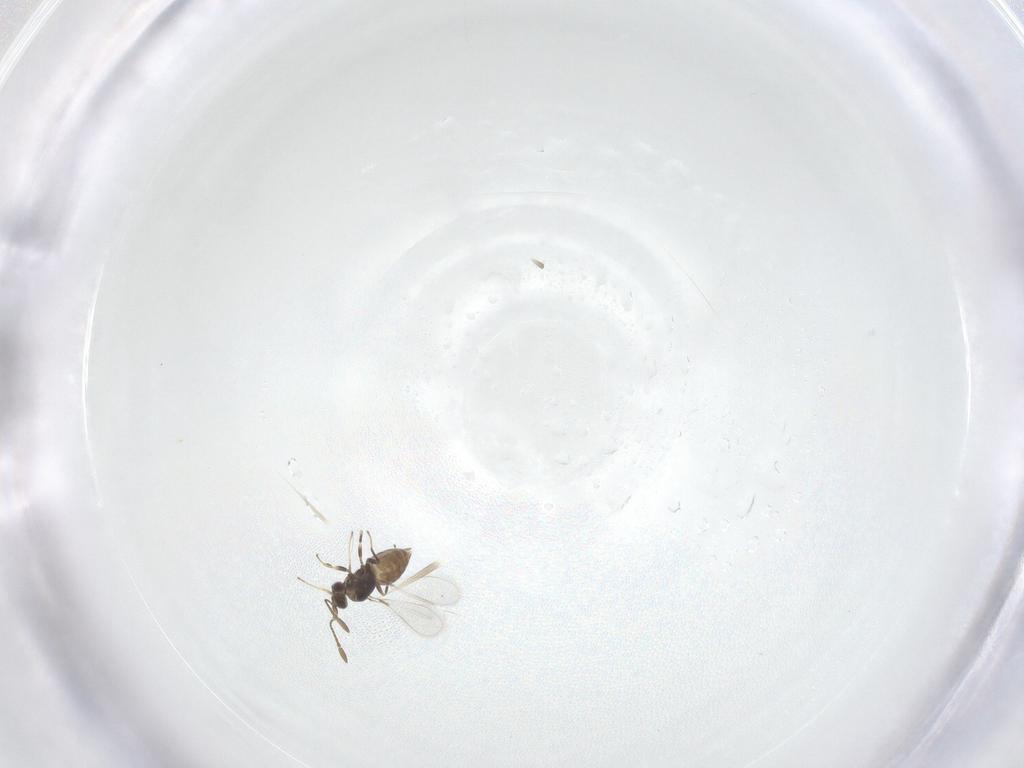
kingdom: Animalia
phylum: Arthropoda
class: Insecta
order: Hymenoptera
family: Mymaridae
